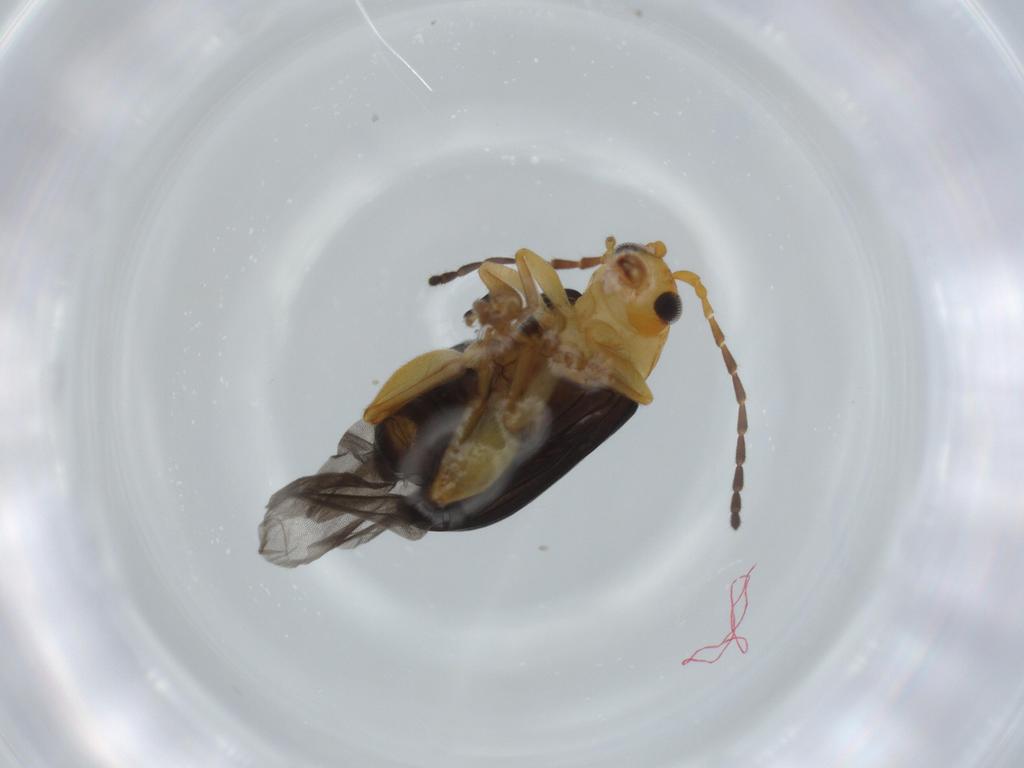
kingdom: Animalia
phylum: Arthropoda
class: Insecta
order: Coleoptera
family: Chrysomelidae
